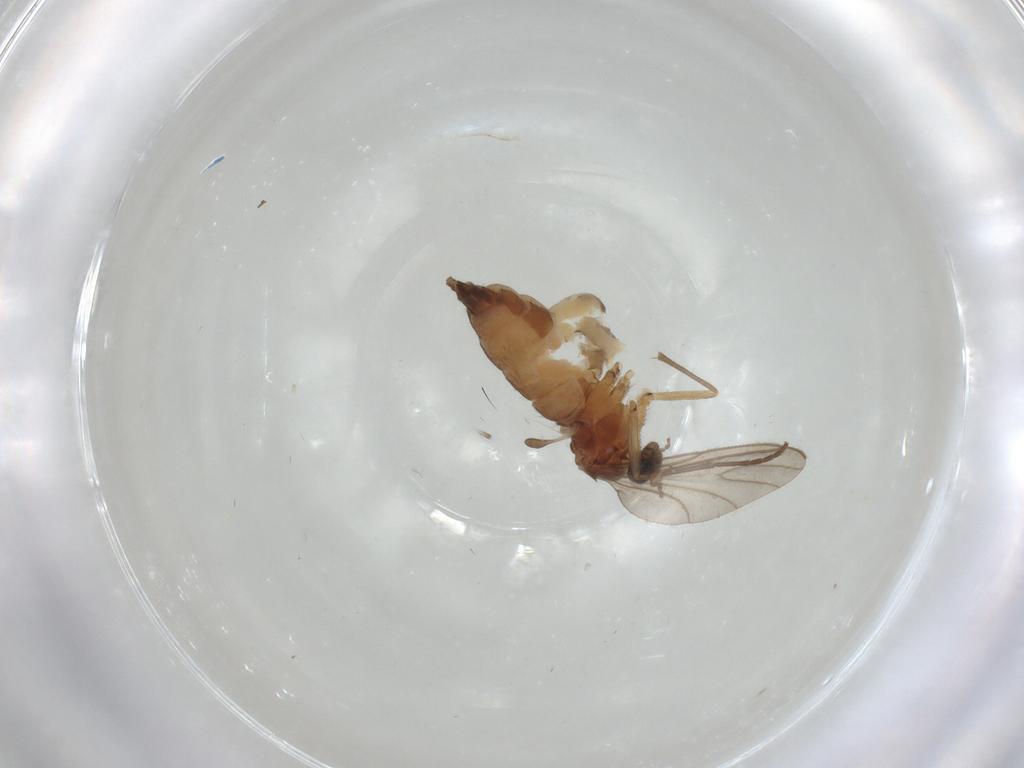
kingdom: Animalia
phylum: Arthropoda
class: Insecta
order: Diptera
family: Sciaridae
